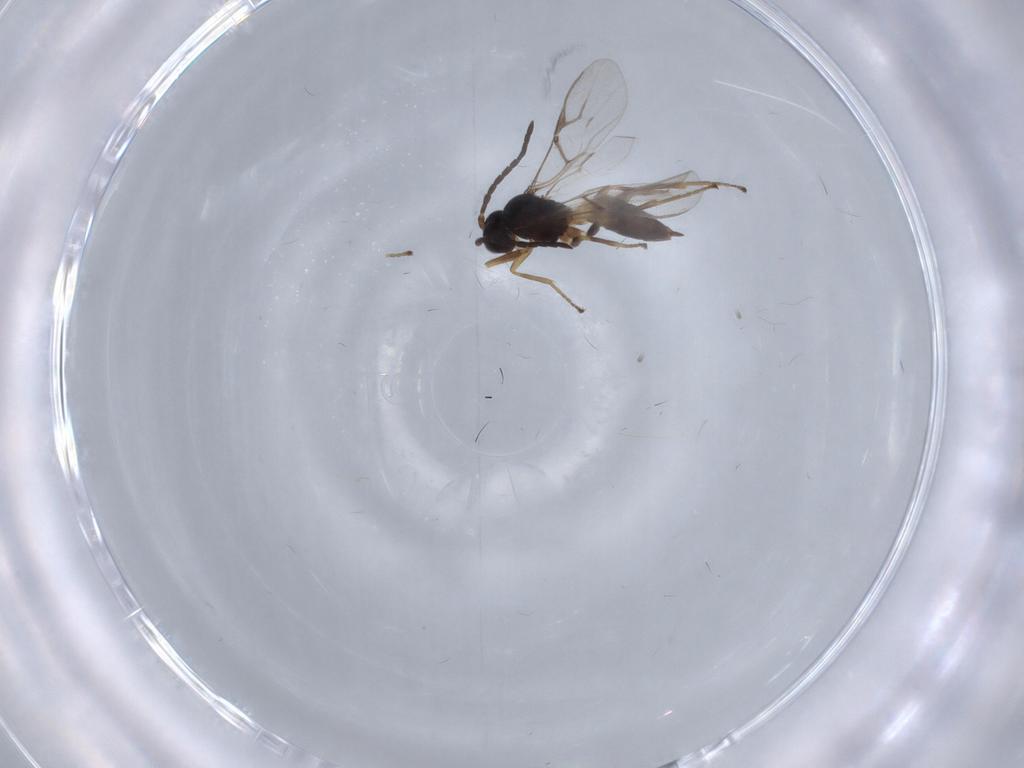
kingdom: Animalia
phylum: Arthropoda
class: Insecta
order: Hymenoptera
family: Braconidae
